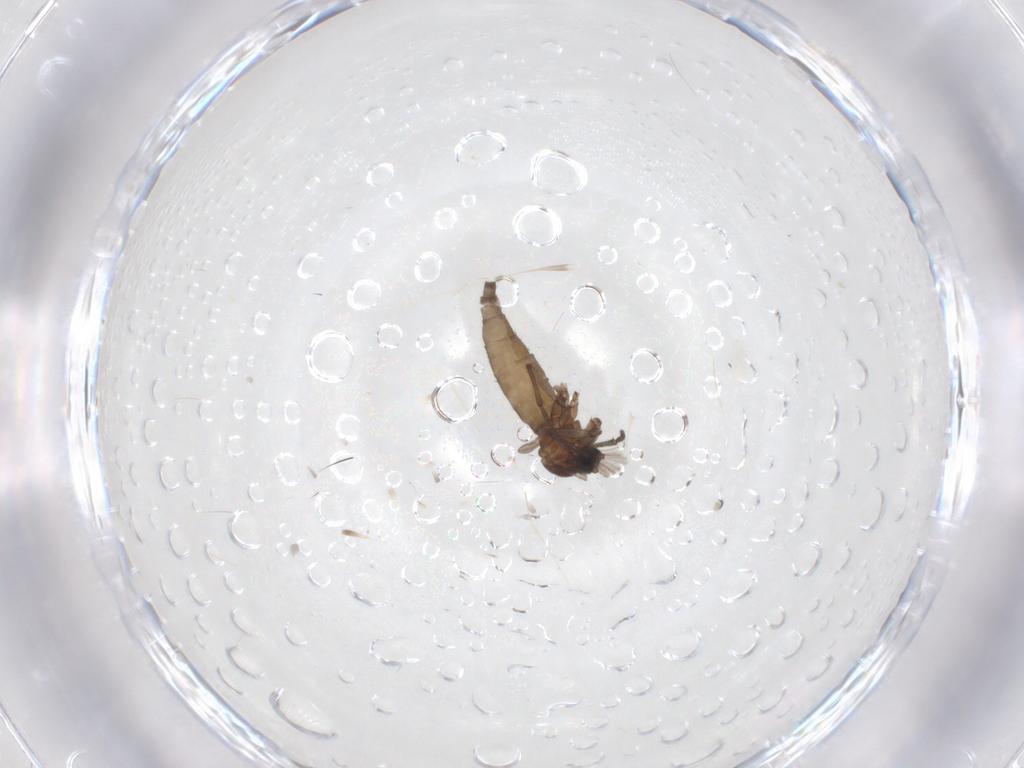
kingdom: Animalia
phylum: Arthropoda
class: Insecta
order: Diptera
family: Sciaridae
